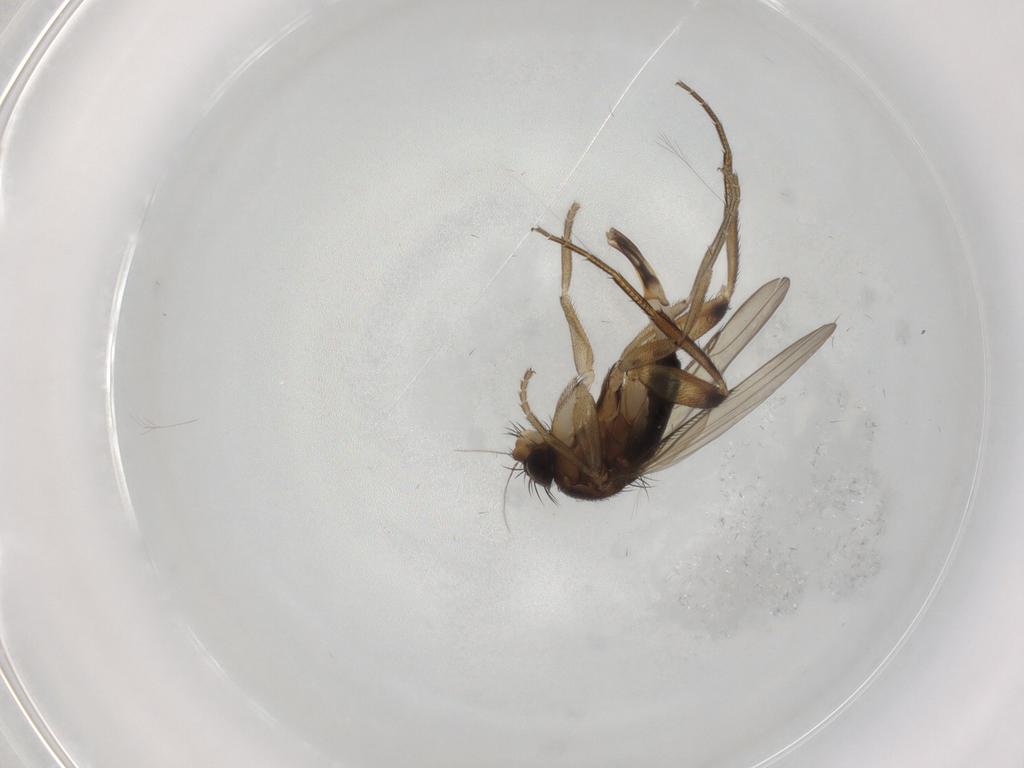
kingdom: Animalia
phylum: Arthropoda
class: Insecta
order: Diptera
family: Phoridae
